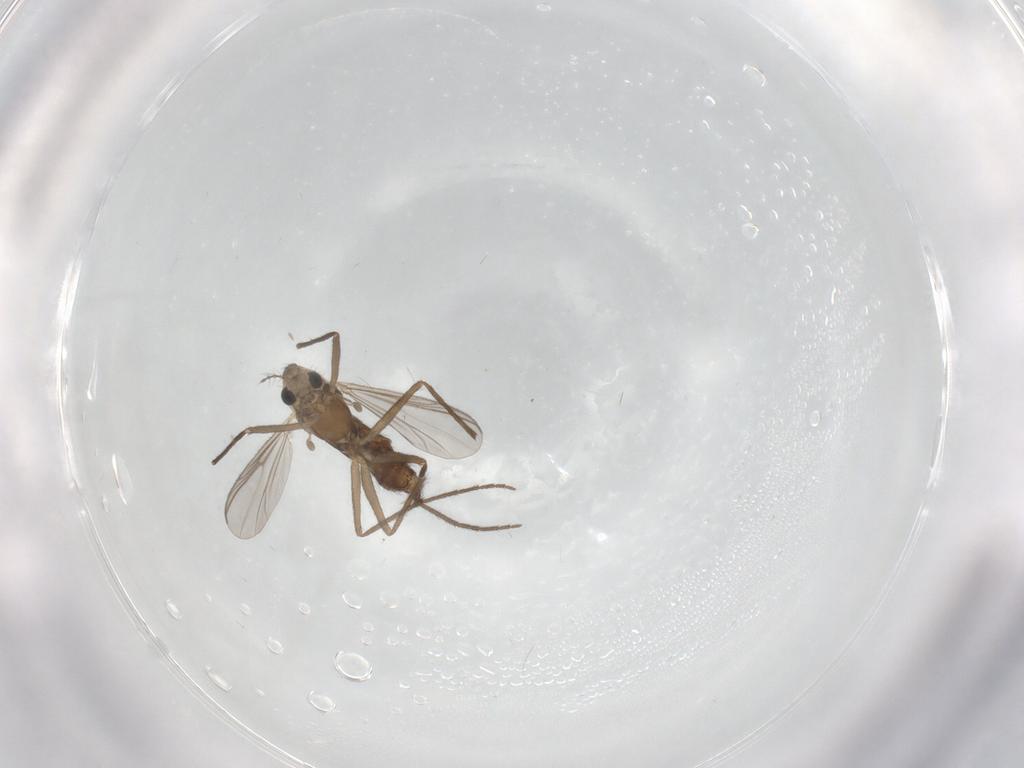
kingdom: Animalia
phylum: Arthropoda
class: Insecta
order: Diptera
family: Chironomidae
